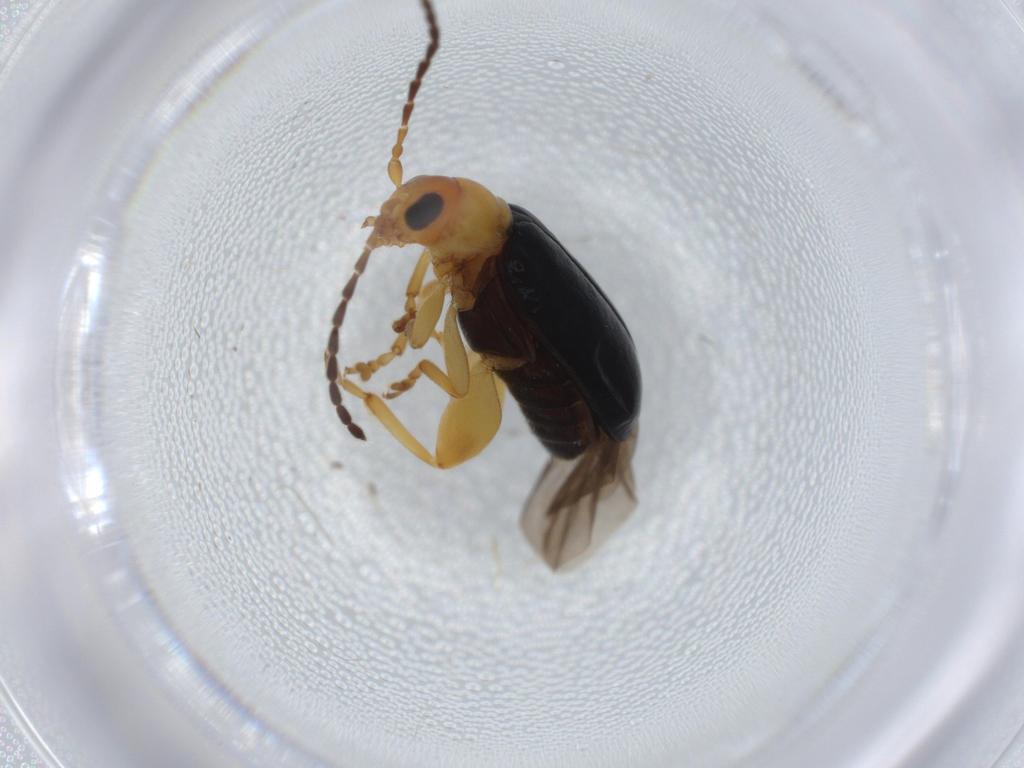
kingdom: Animalia
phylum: Arthropoda
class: Insecta
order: Coleoptera
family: Chrysomelidae
